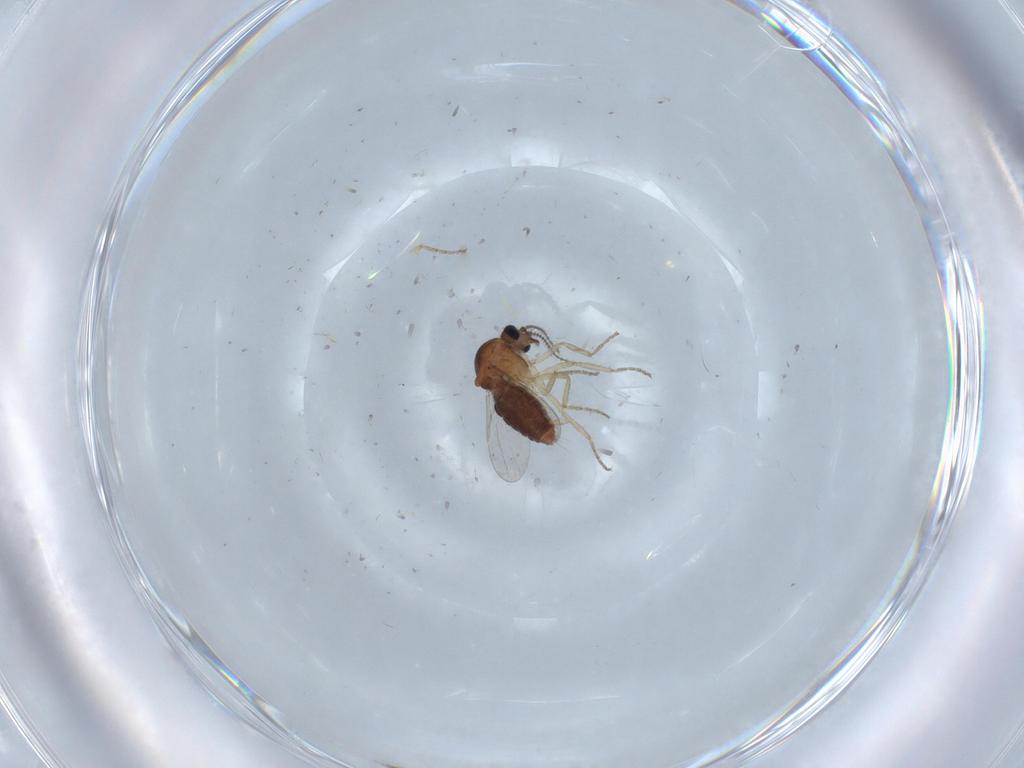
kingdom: Animalia
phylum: Arthropoda
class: Insecta
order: Diptera
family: Ceratopogonidae
